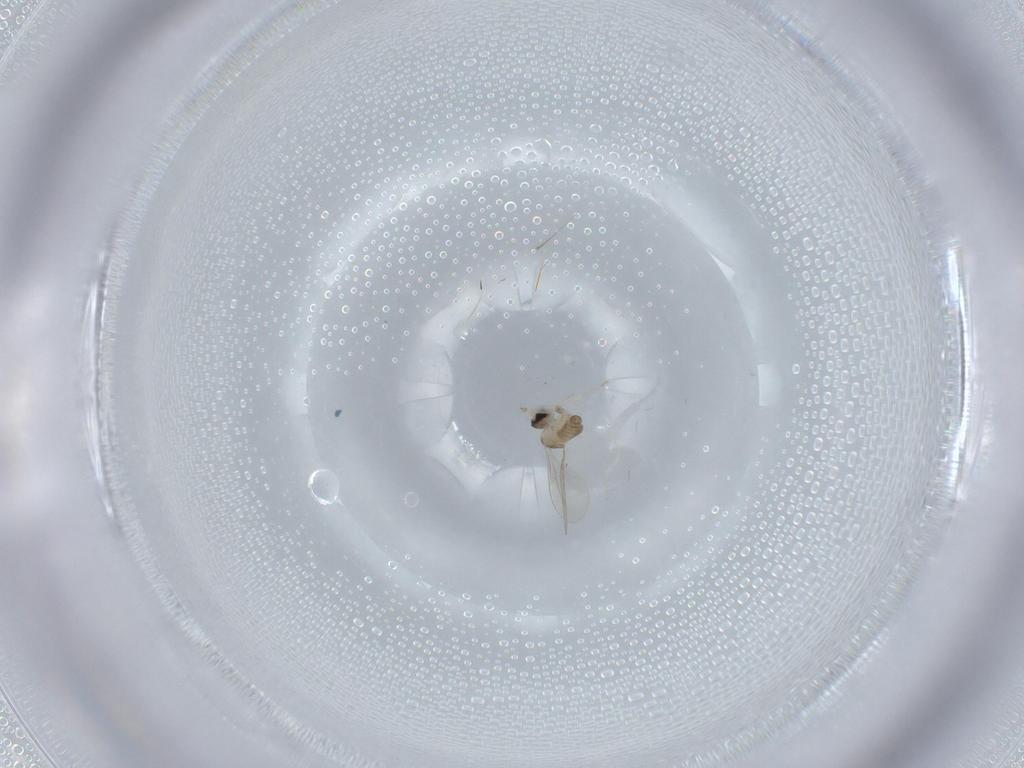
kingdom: Animalia
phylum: Arthropoda
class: Insecta
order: Diptera
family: Cecidomyiidae
